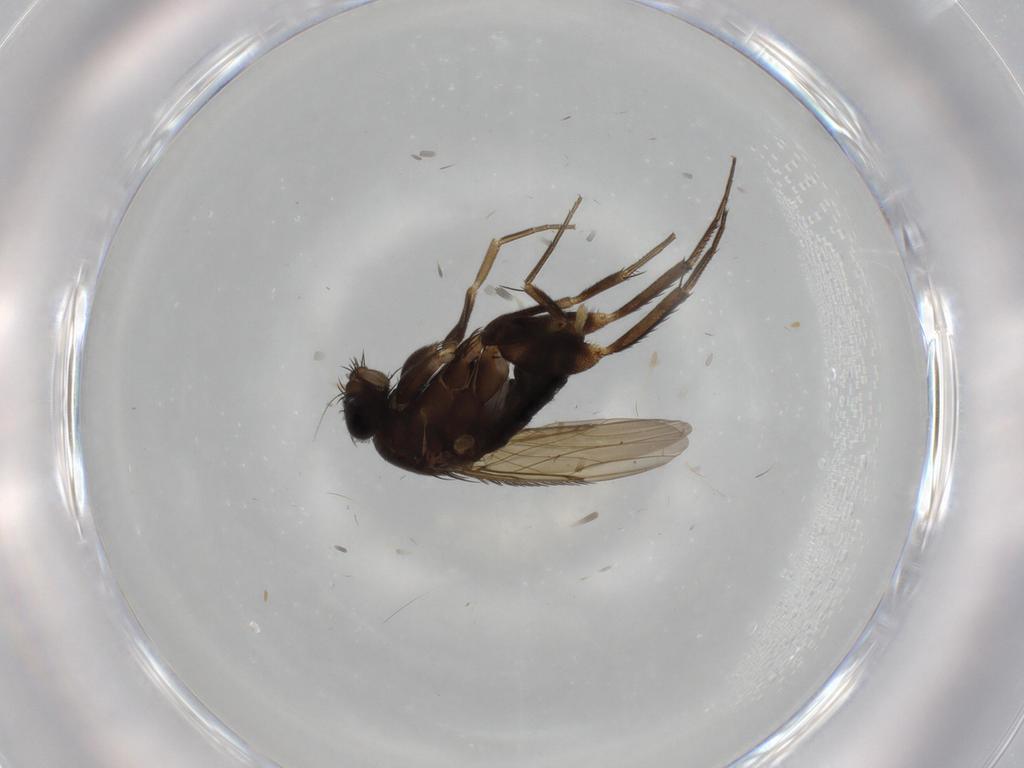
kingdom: Animalia
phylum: Arthropoda
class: Insecta
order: Diptera
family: Phoridae
